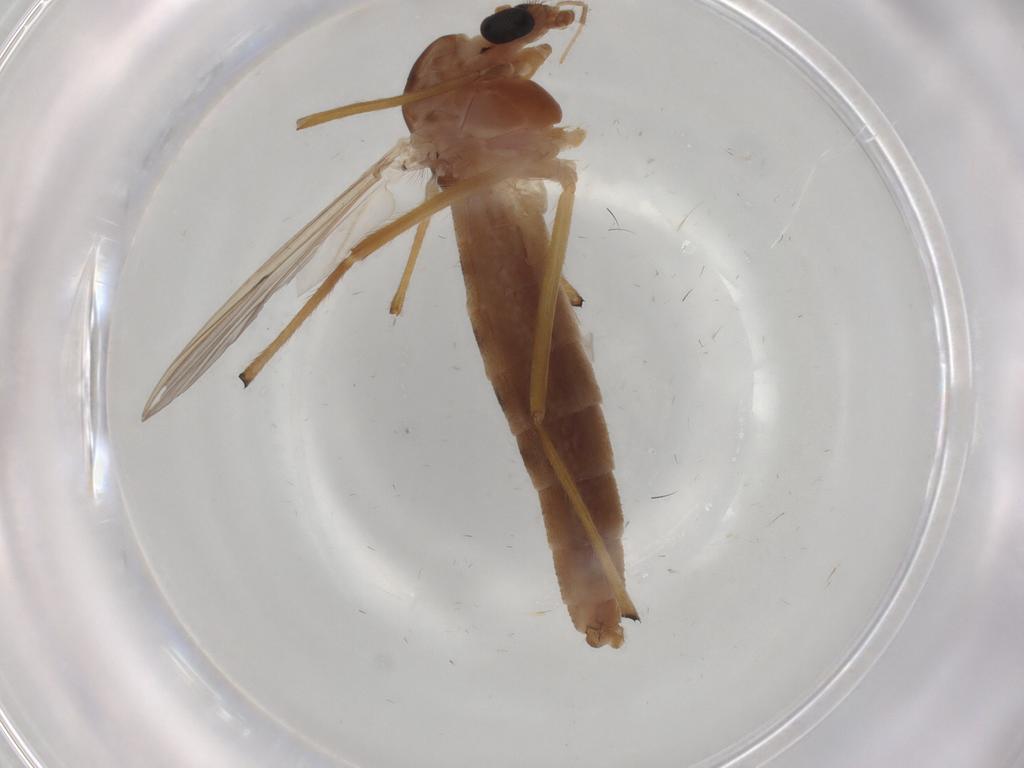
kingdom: Animalia
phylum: Arthropoda
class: Insecta
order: Diptera
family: Chironomidae
